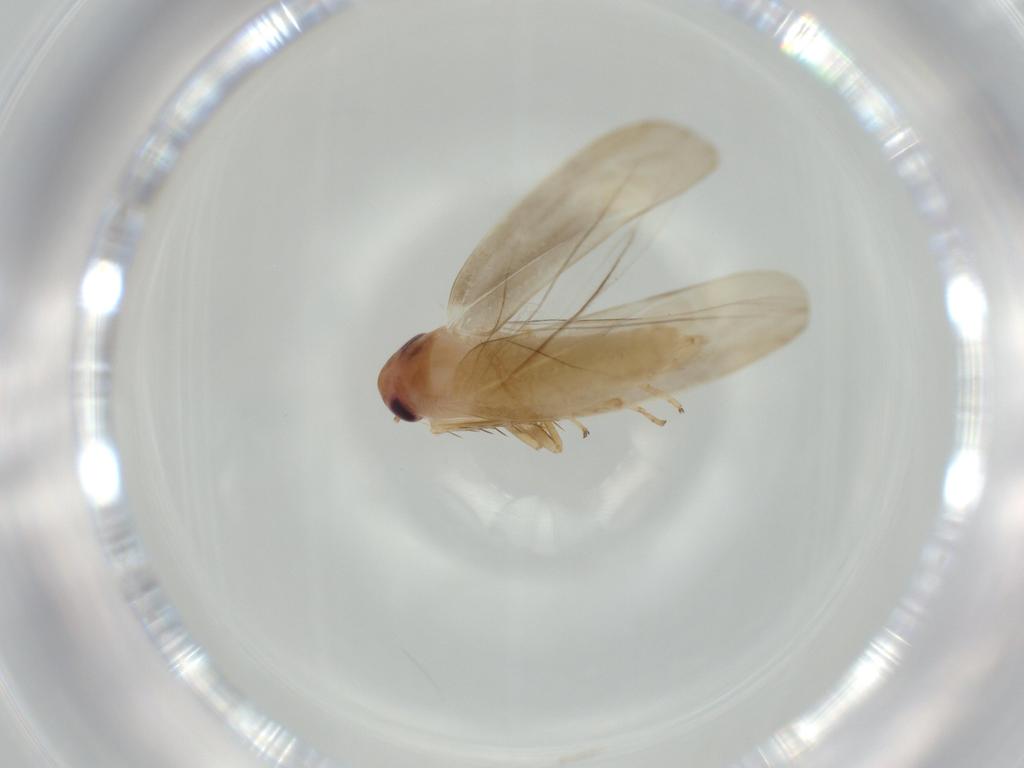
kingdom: Animalia
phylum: Arthropoda
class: Insecta
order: Hemiptera
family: Cicadellidae
